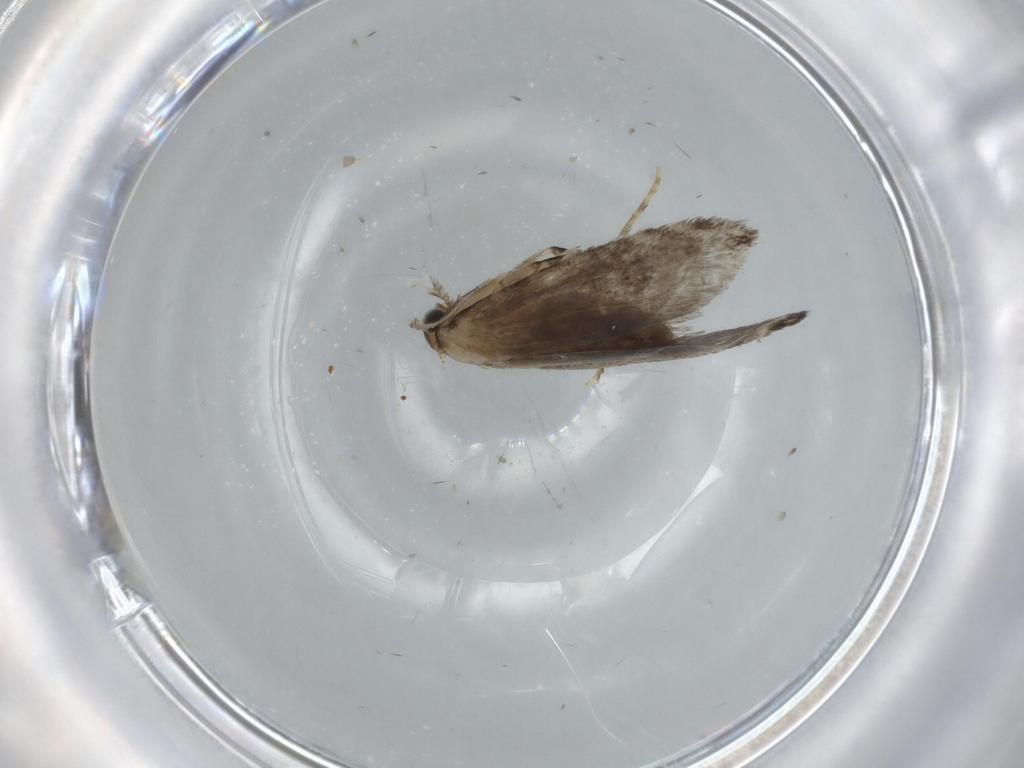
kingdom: Animalia
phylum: Arthropoda
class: Insecta
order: Lepidoptera
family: Tineidae
